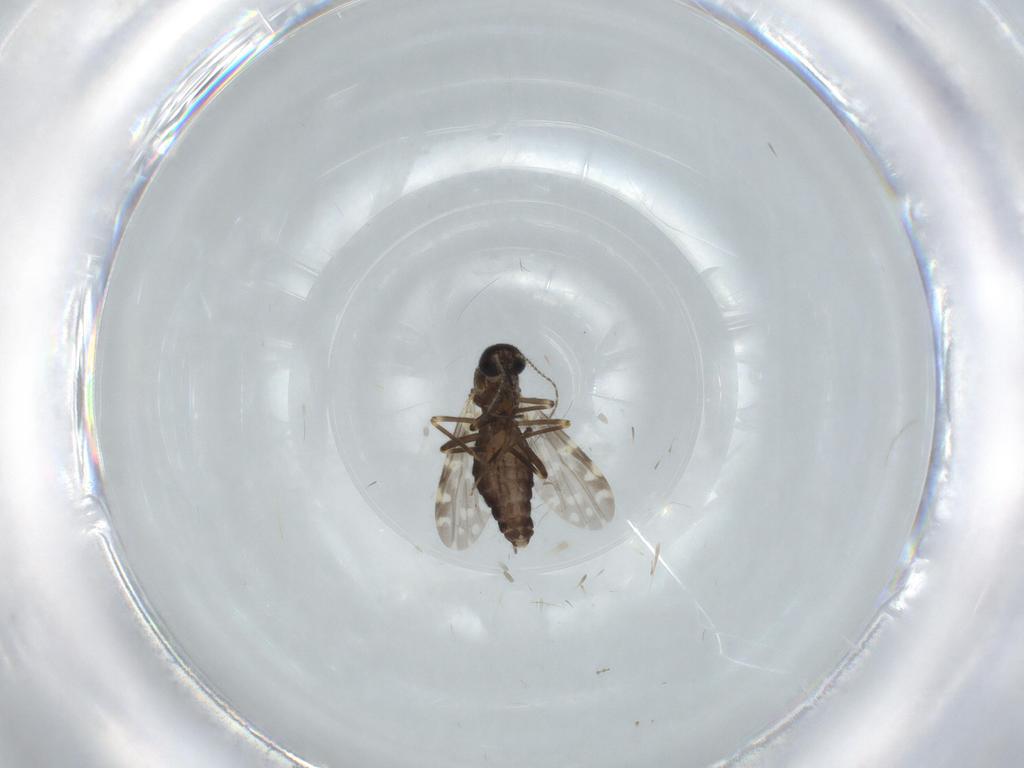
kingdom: Animalia
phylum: Arthropoda
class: Insecta
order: Diptera
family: Ceratopogonidae
